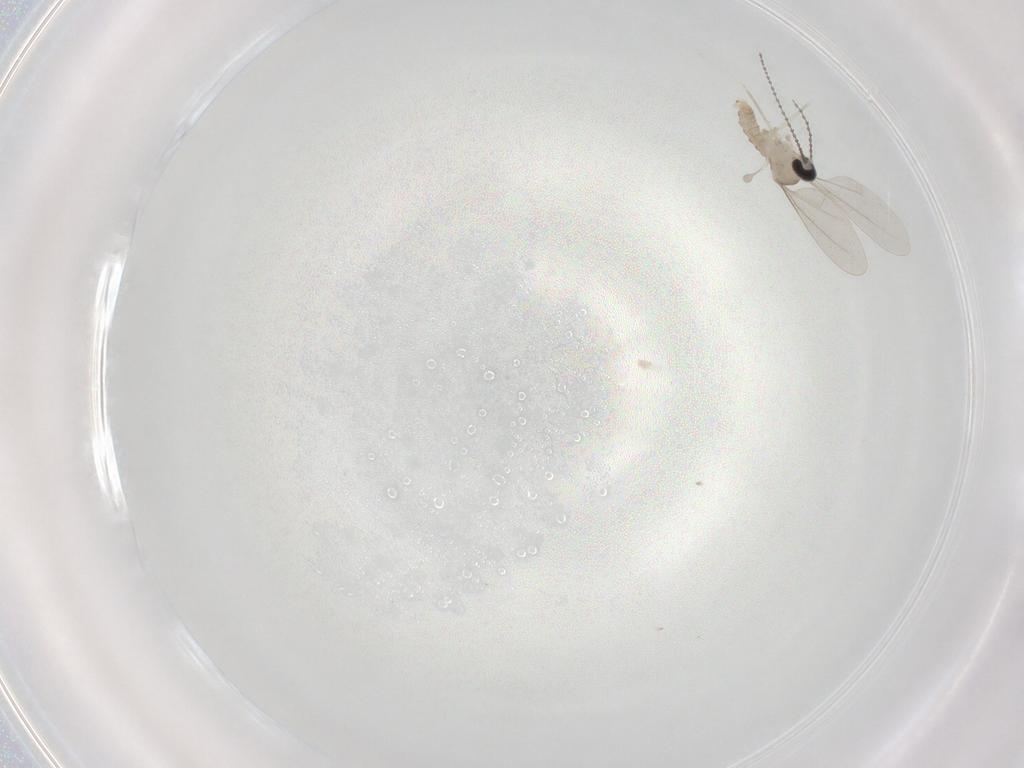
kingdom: Animalia
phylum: Arthropoda
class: Insecta
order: Diptera
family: Cecidomyiidae
